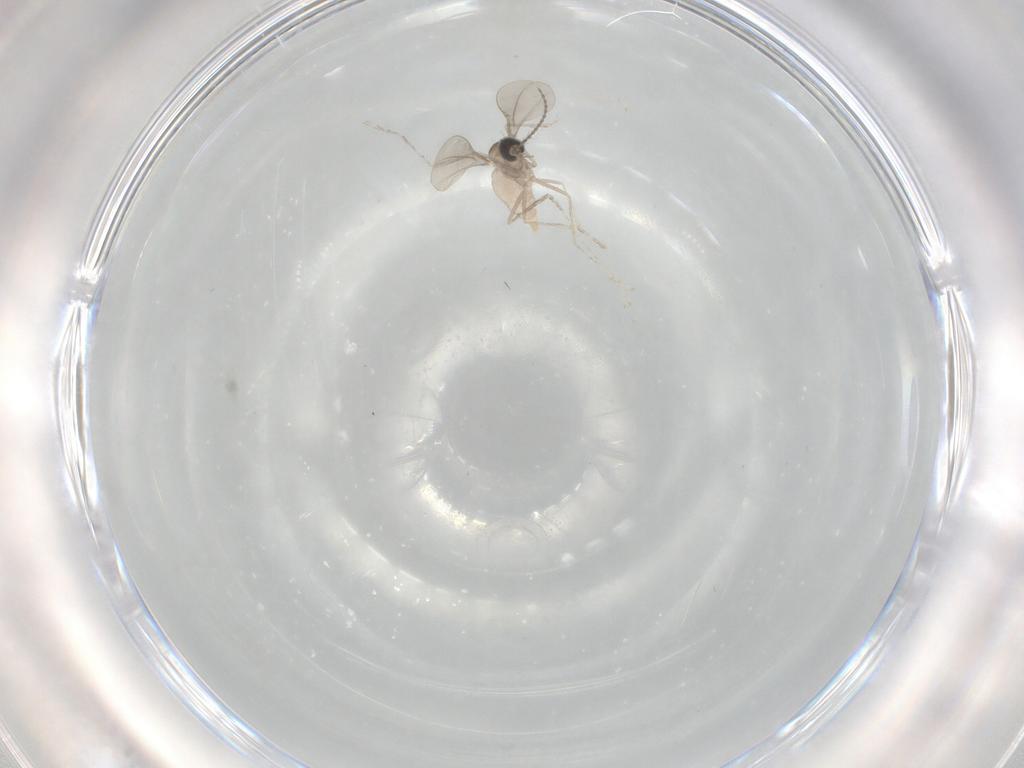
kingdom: Animalia
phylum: Arthropoda
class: Insecta
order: Diptera
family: Cecidomyiidae
